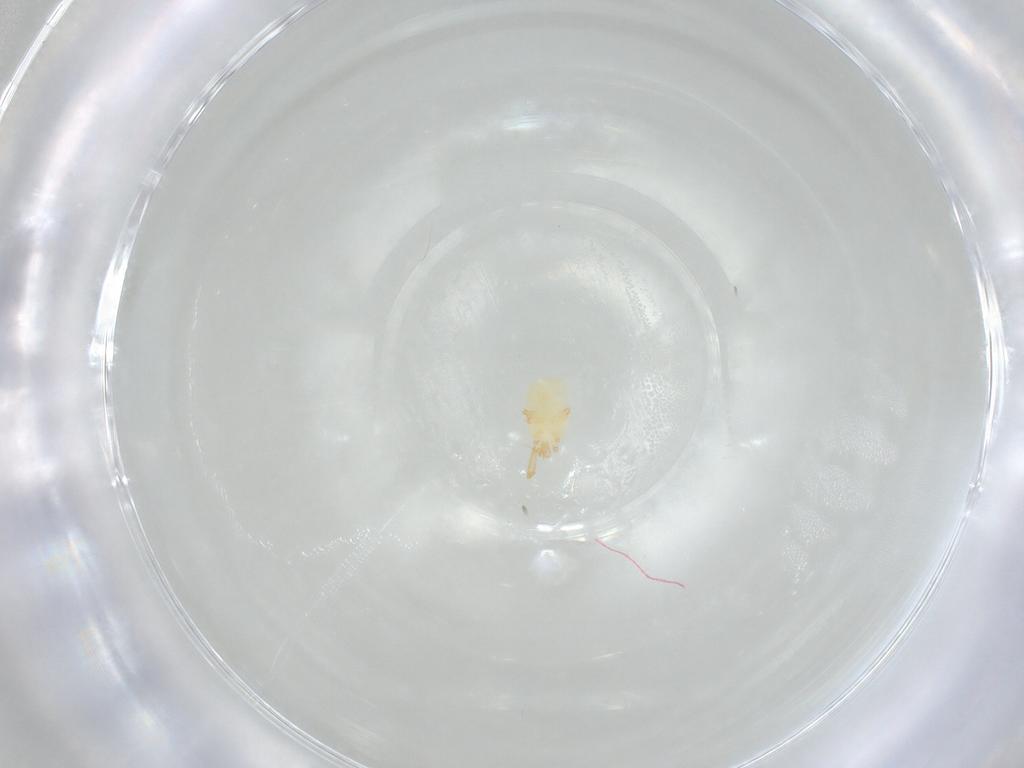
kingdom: Animalia
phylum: Arthropoda
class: Arachnida
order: Trombidiformes
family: Eupodidae
